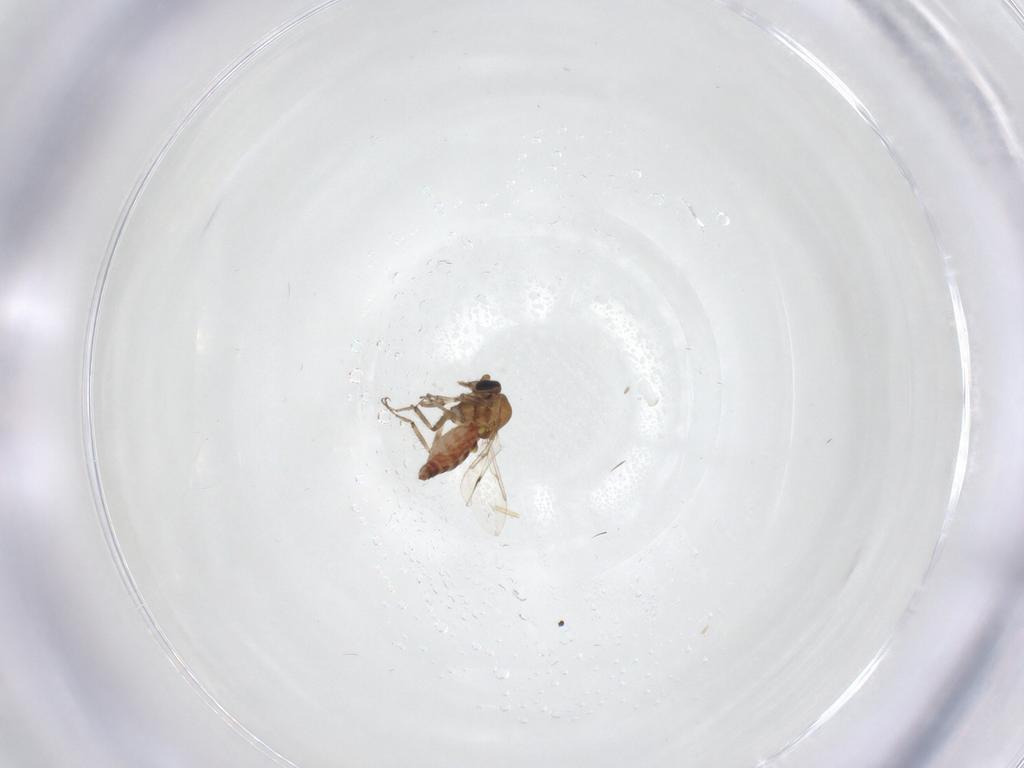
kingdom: Animalia
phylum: Arthropoda
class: Insecta
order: Diptera
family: Ceratopogonidae
